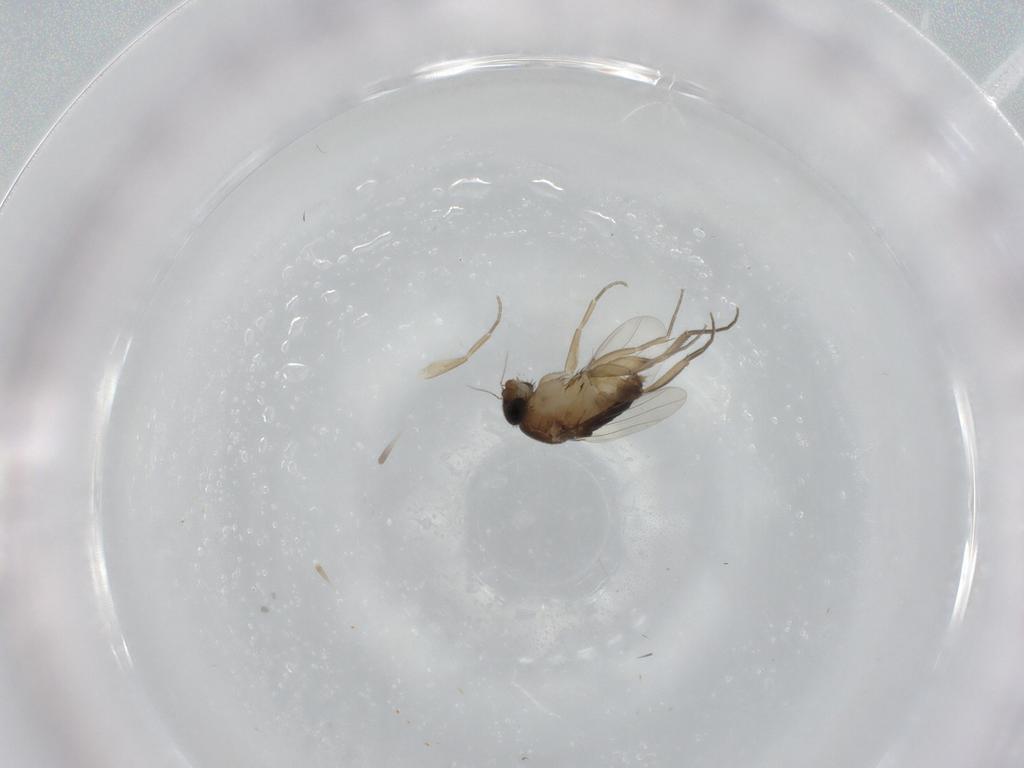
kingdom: Animalia
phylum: Arthropoda
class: Insecta
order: Diptera
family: Phoridae
